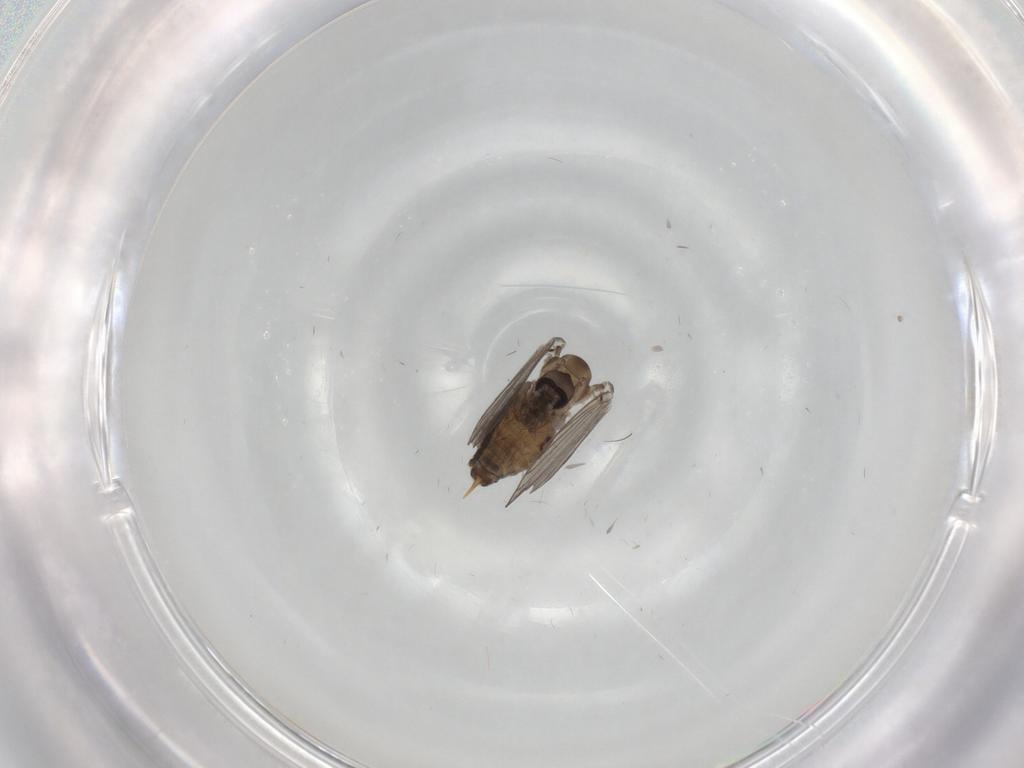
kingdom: Animalia
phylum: Arthropoda
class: Insecta
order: Diptera
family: Psychodidae
